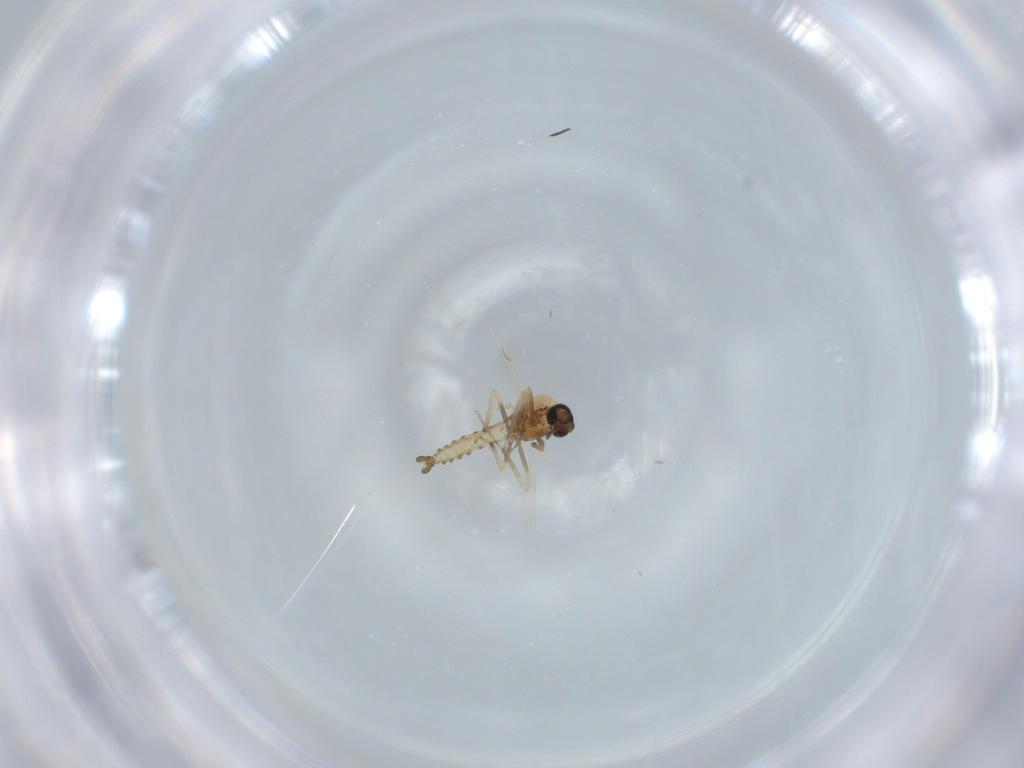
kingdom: Animalia
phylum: Arthropoda
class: Insecta
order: Diptera
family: Ceratopogonidae
